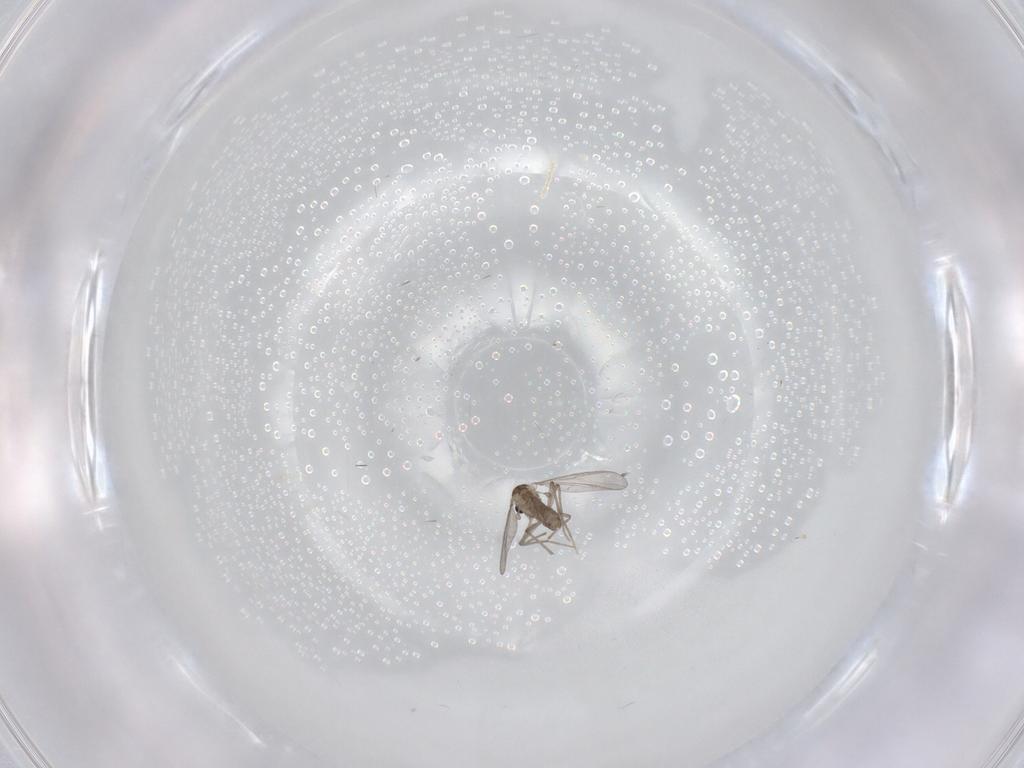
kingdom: Animalia
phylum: Arthropoda
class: Insecta
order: Diptera
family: Chironomidae
